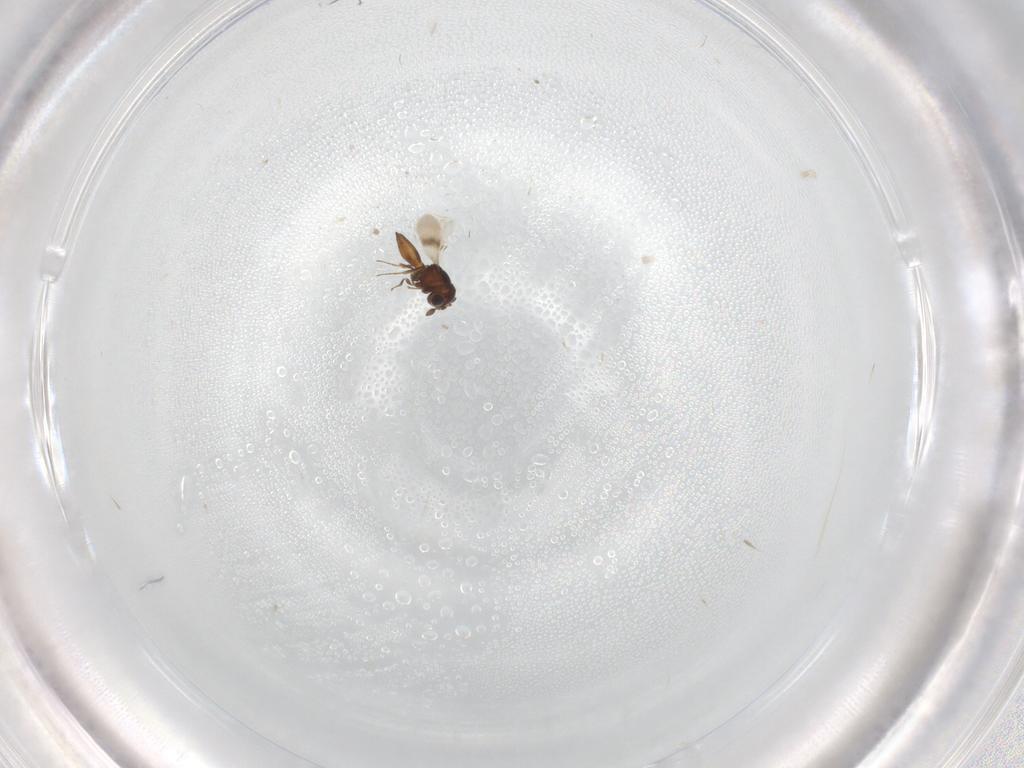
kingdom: Animalia
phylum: Arthropoda
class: Insecta
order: Hymenoptera
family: Scelionidae
